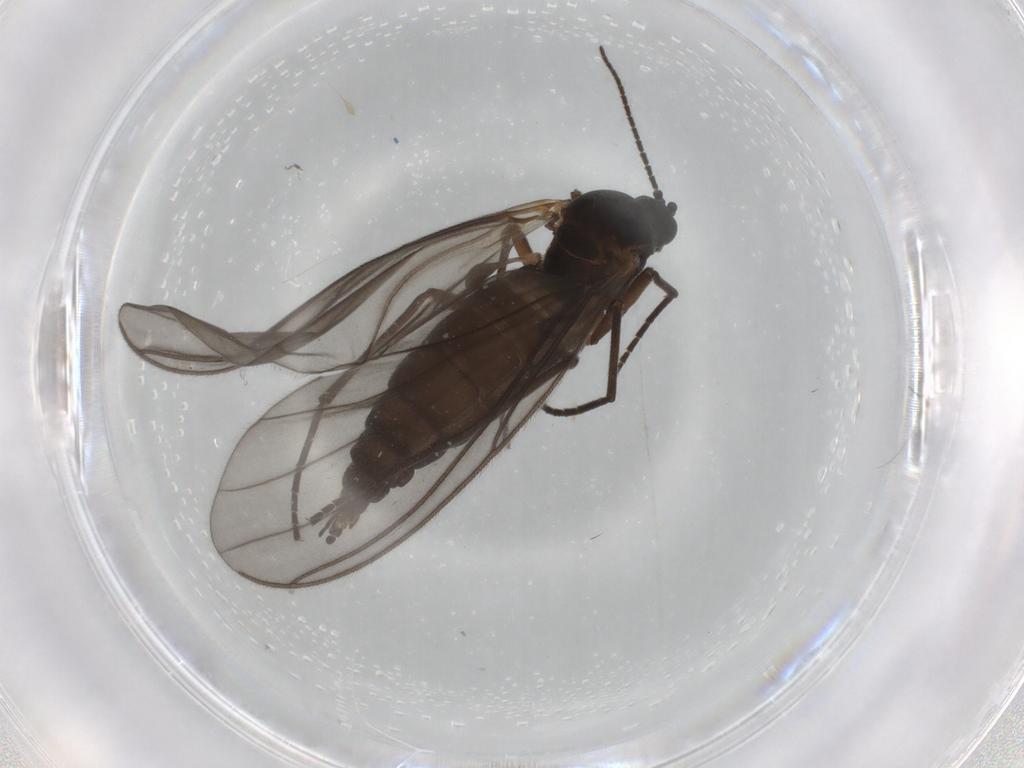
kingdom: Animalia
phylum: Arthropoda
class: Insecta
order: Diptera
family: Sciaridae
